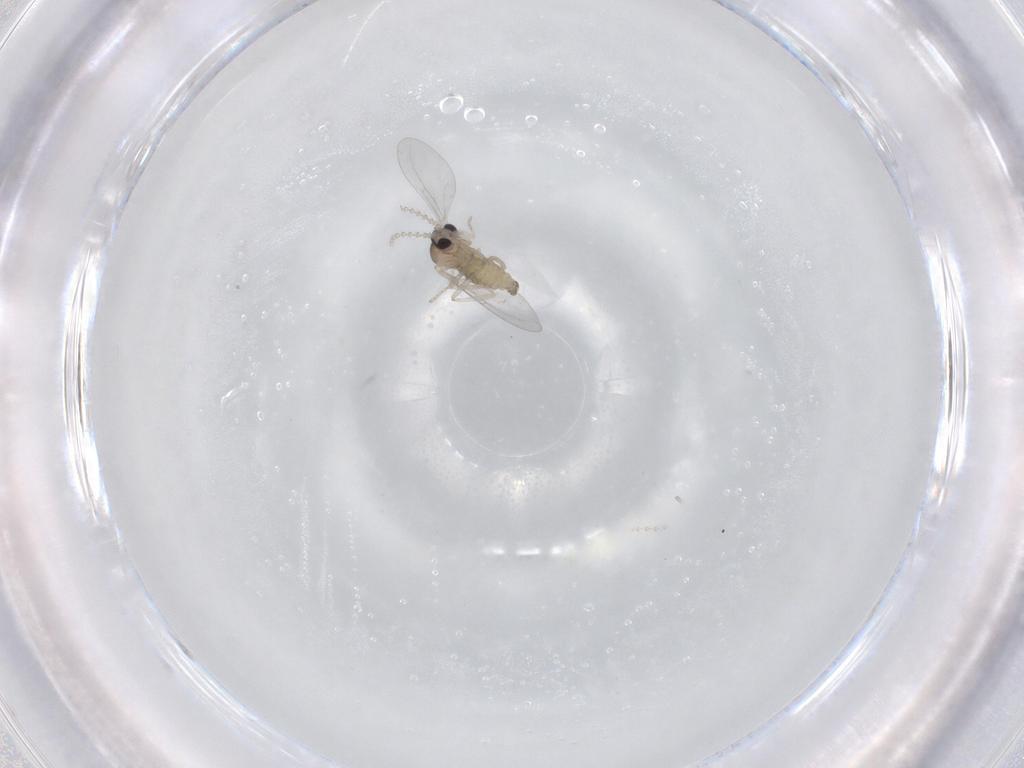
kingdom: Animalia
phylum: Arthropoda
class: Insecta
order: Diptera
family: Cecidomyiidae
